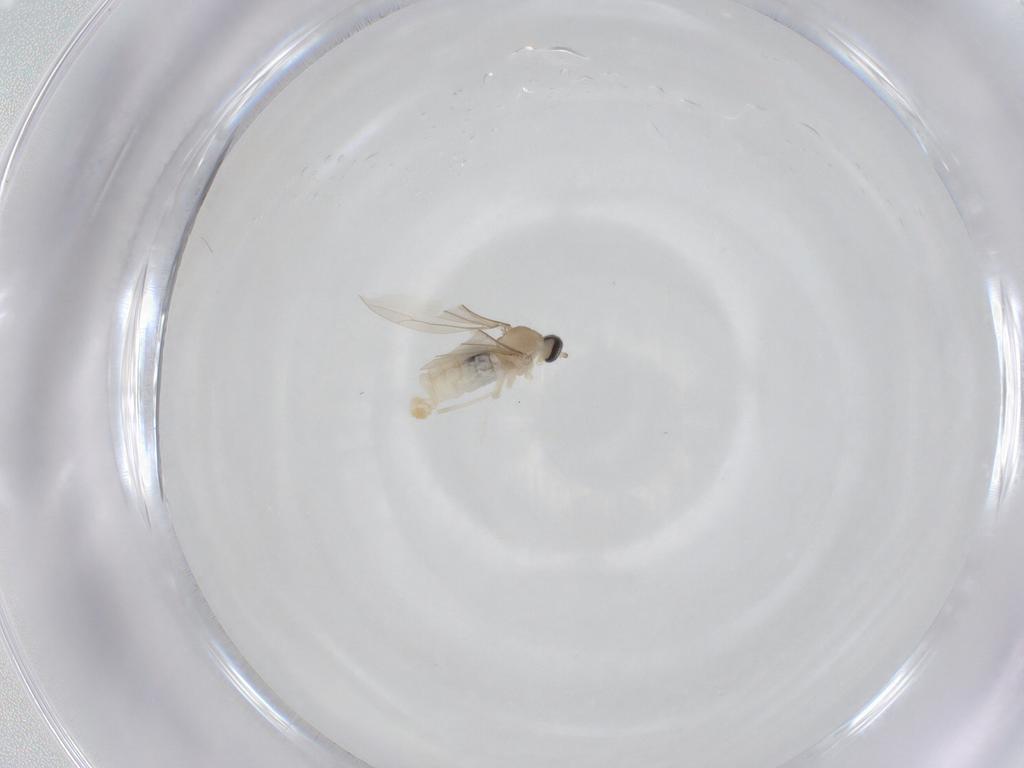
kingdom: Animalia
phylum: Arthropoda
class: Insecta
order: Diptera
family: Cecidomyiidae
